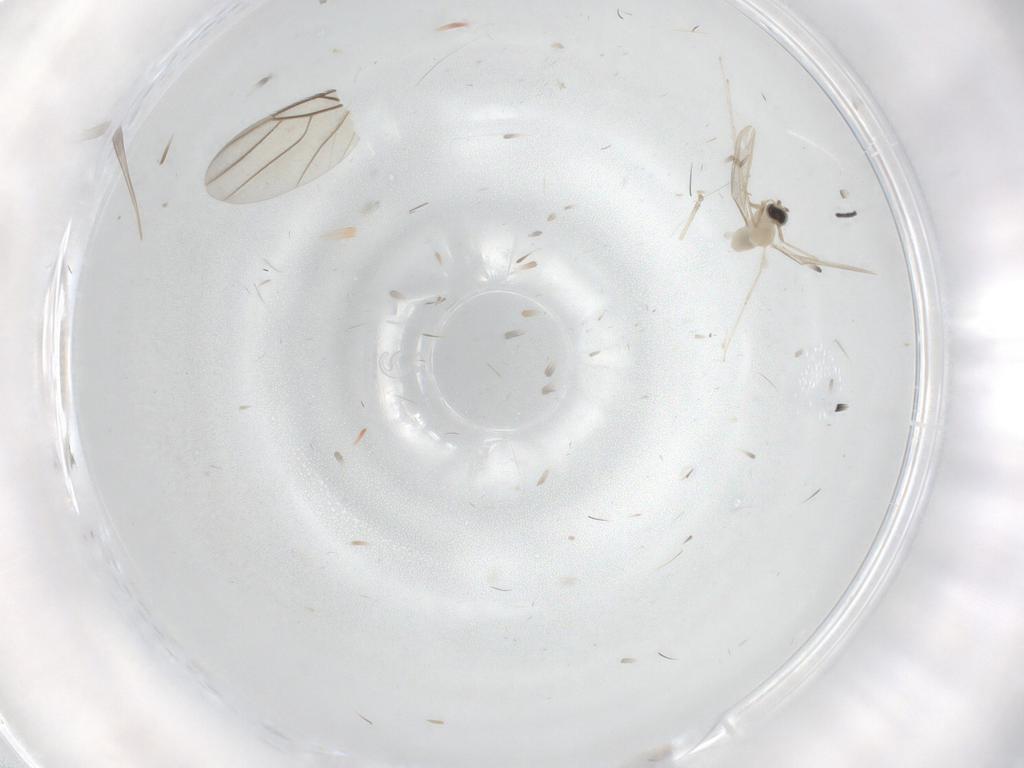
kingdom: Animalia
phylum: Arthropoda
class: Insecta
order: Diptera
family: Cecidomyiidae
